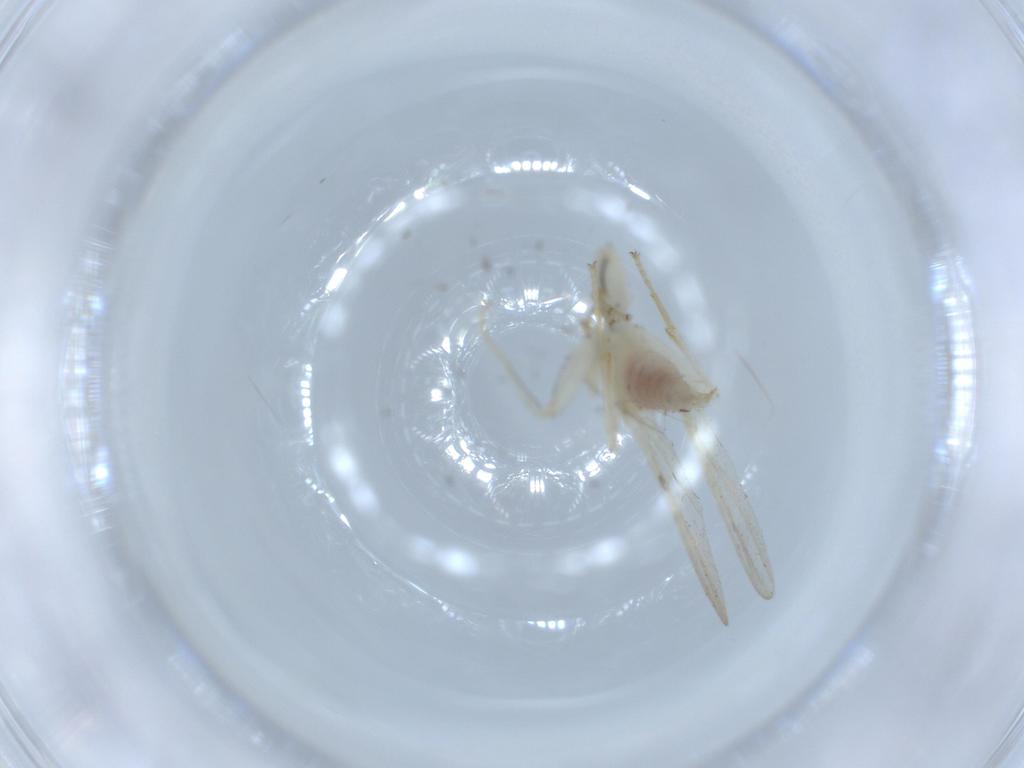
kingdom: Animalia
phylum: Arthropoda
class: Insecta
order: Diptera
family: Hybotidae
